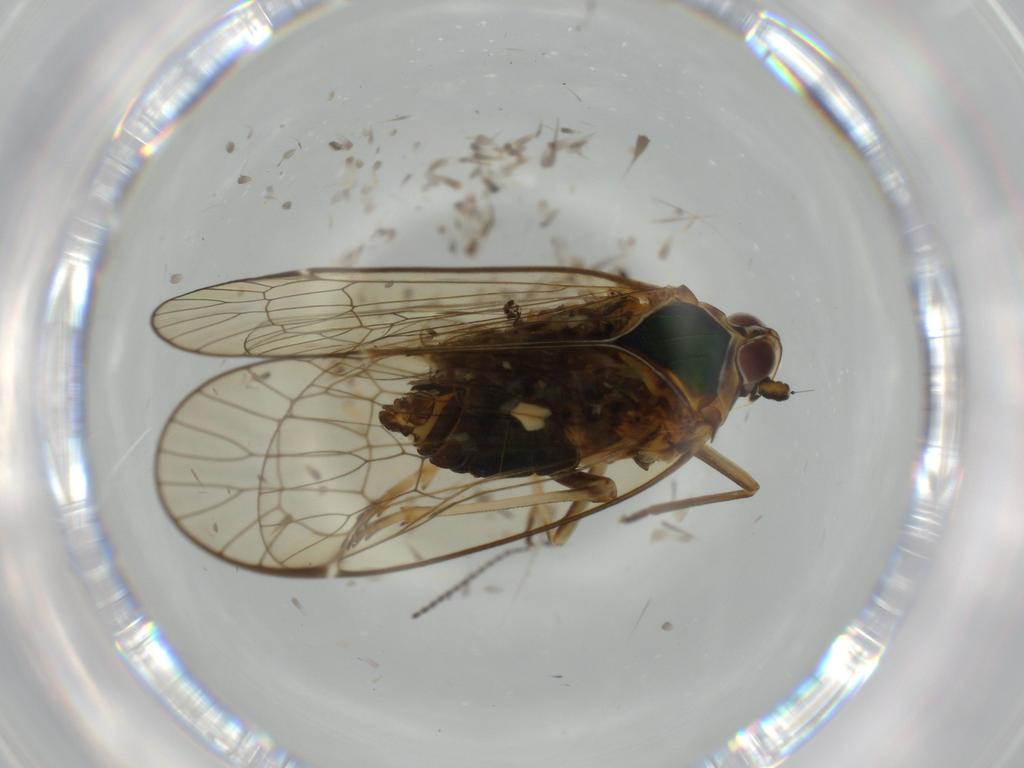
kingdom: Animalia
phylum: Arthropoda
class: Insecta
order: Hemiptera
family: Kinnaridae
